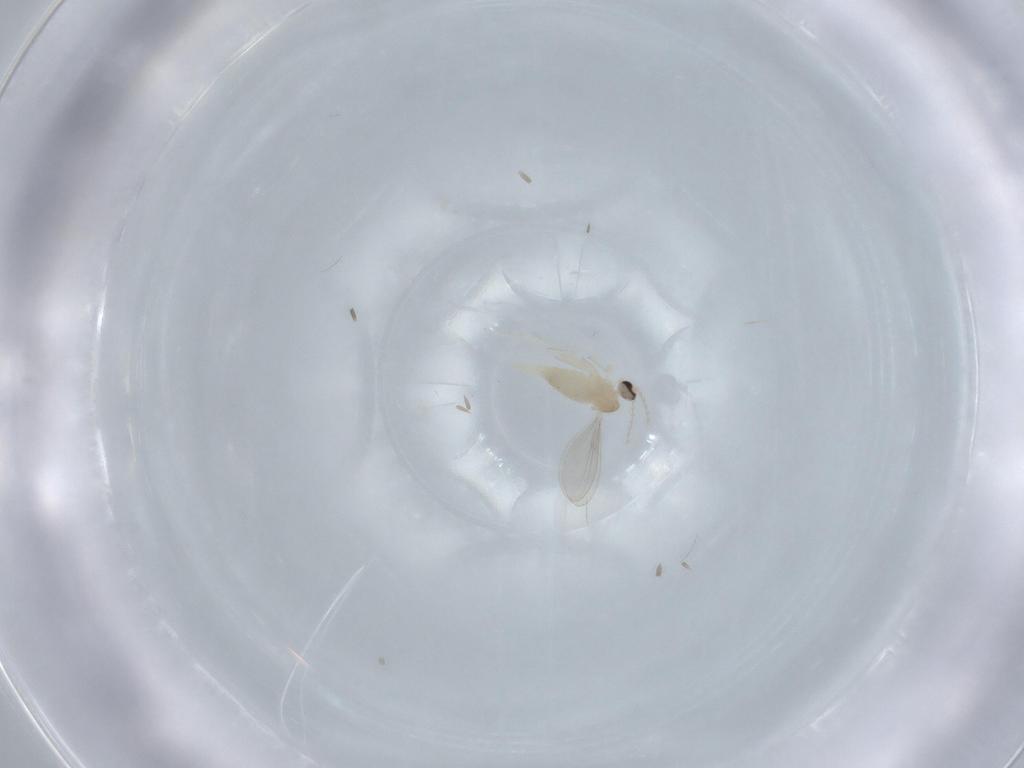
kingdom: Animalia
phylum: Arthropoda
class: Insecta
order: Diptera
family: Cecidomyiidae
